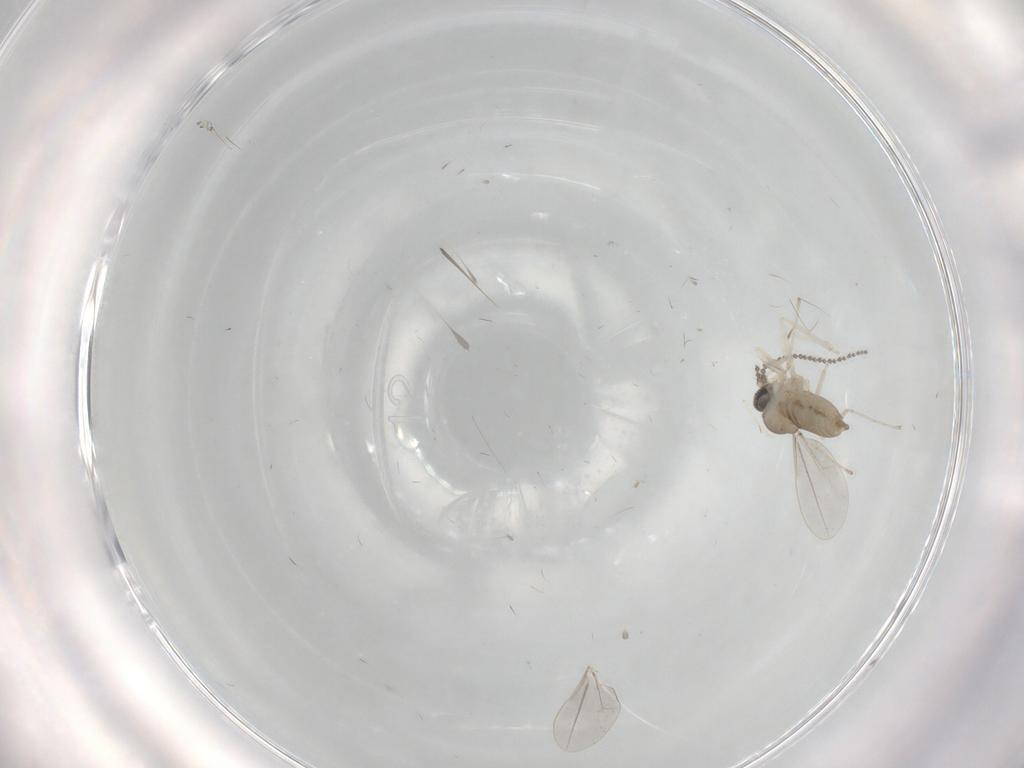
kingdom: Animalia
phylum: Arthropoda
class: Insecta
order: Diptera
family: Cecidomyiidae
